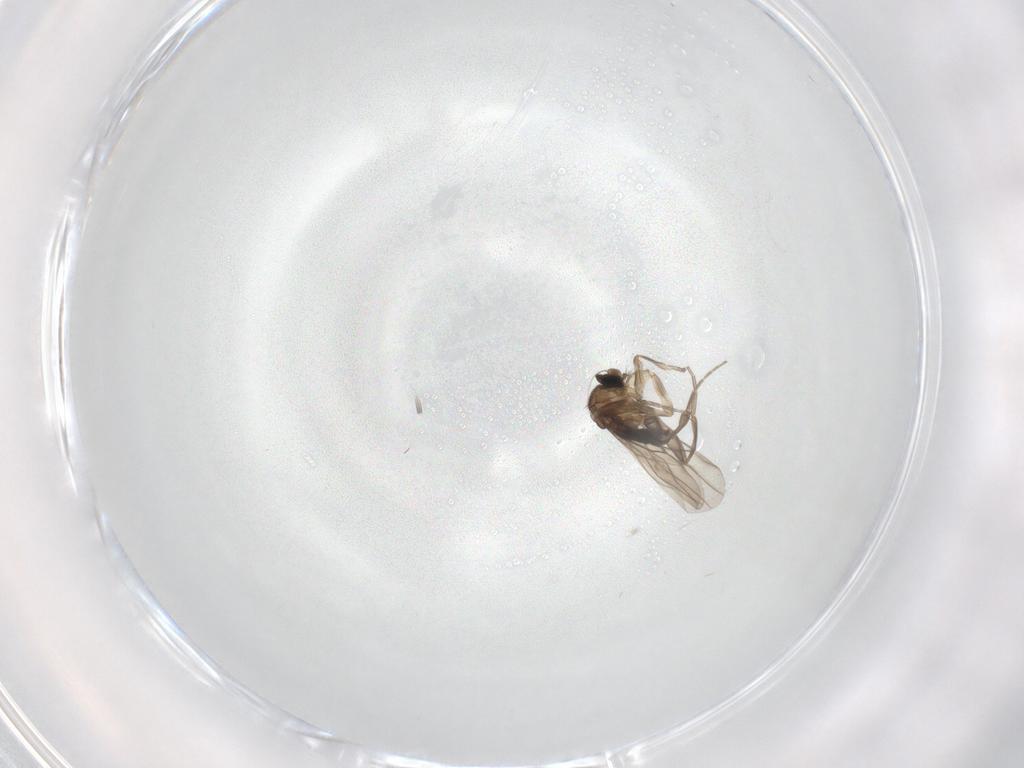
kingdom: Animalia
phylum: Arthropoda
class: Insecta
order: Diptera
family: Phoridae
